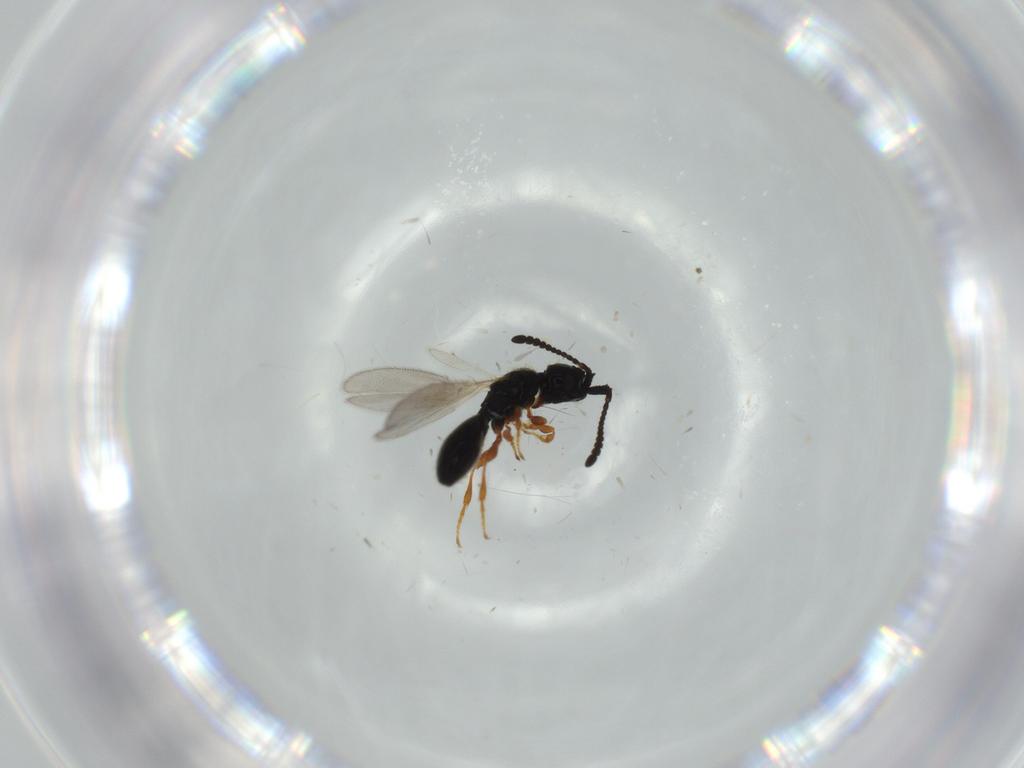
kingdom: Animalia
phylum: Arthropoda
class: Insecta
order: Hymenoptera
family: Crabronidae
